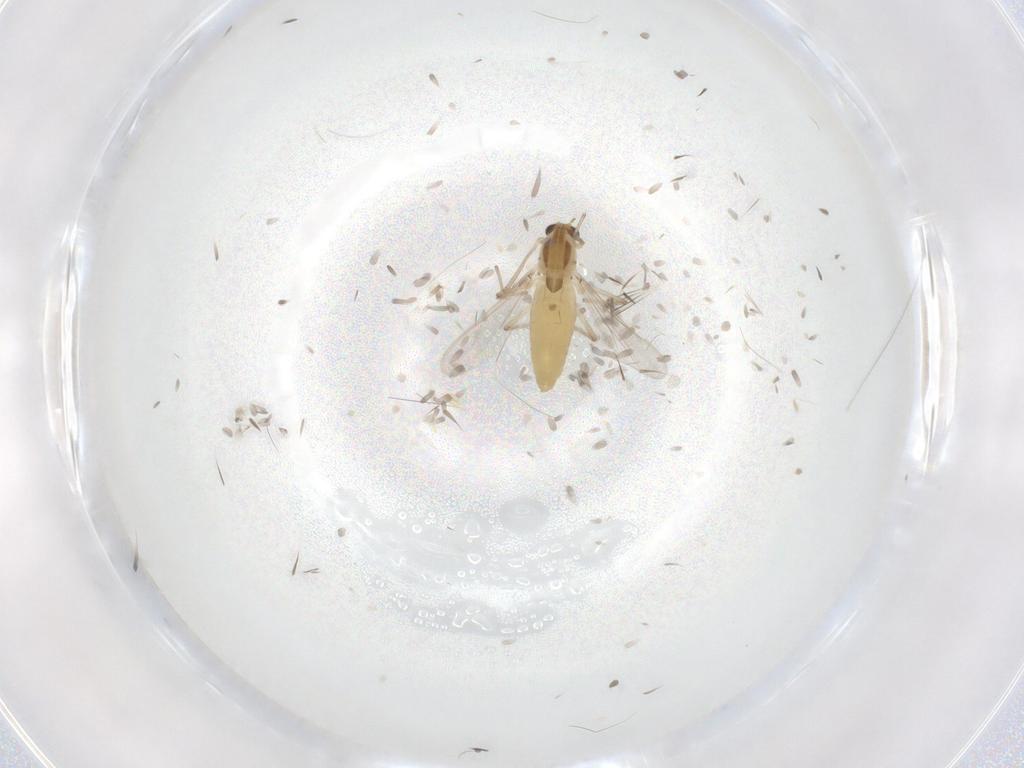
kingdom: Animalia
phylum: Arthropoda
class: Insecta
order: Diptera
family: Chironomidae
